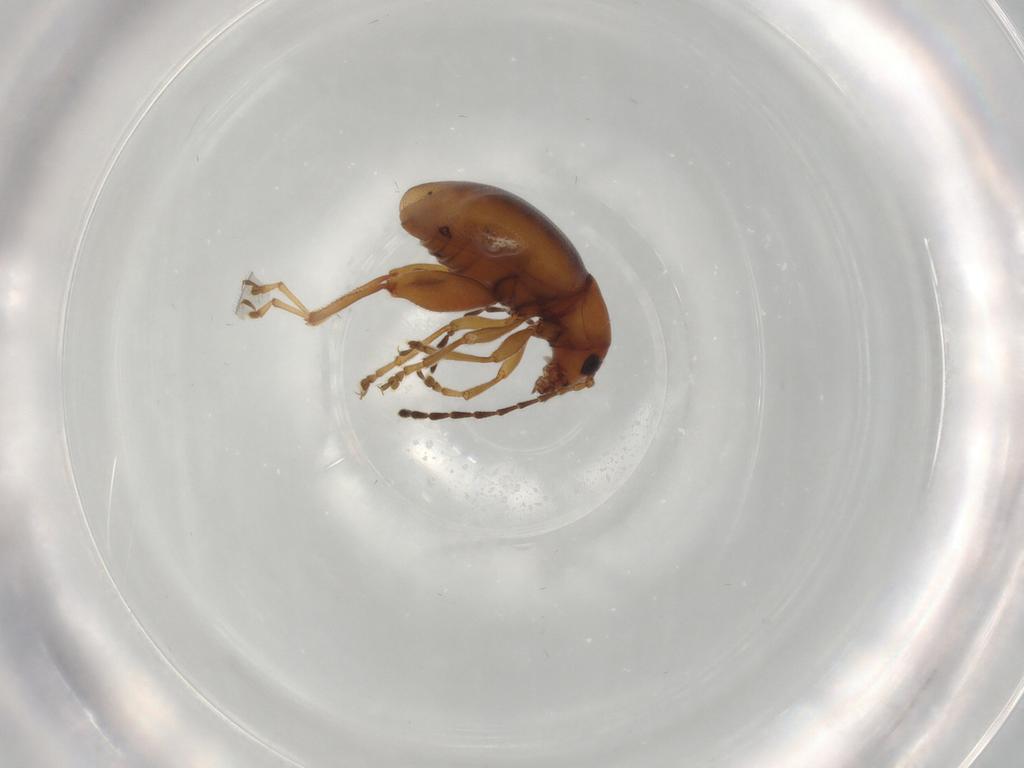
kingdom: Animalia
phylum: Arthropoda
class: Insecta
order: Coleoptera
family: Chrysomelidae
